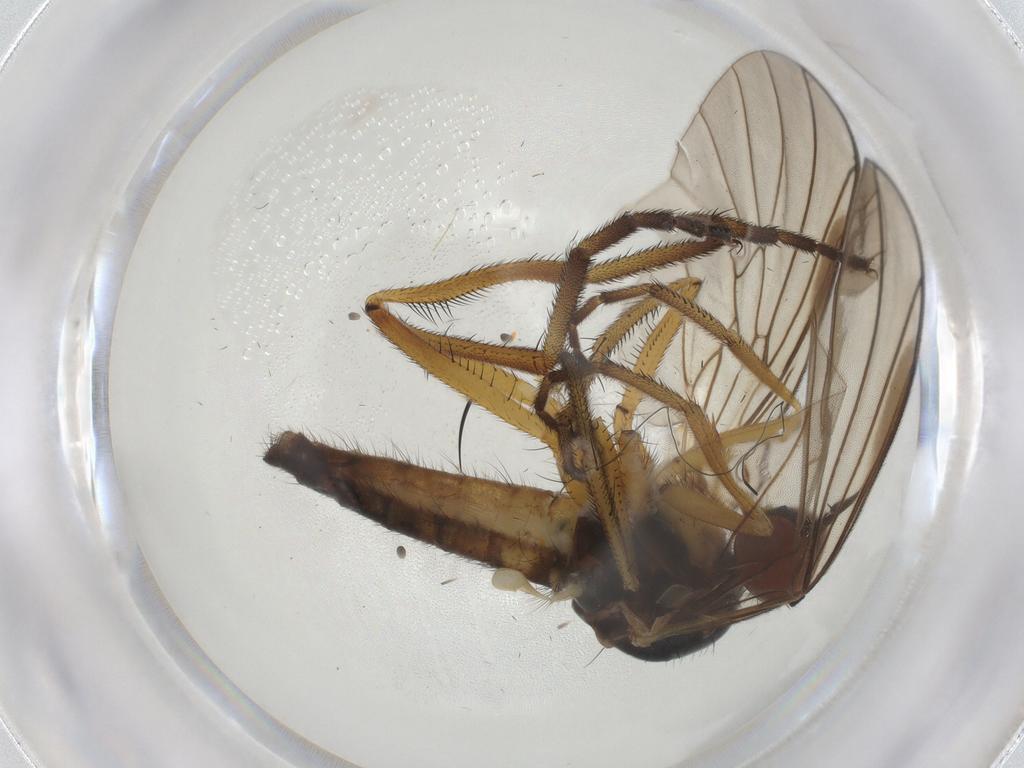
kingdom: Animalia
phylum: Arthropoda
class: Insecta
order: Diptera
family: Empididae
